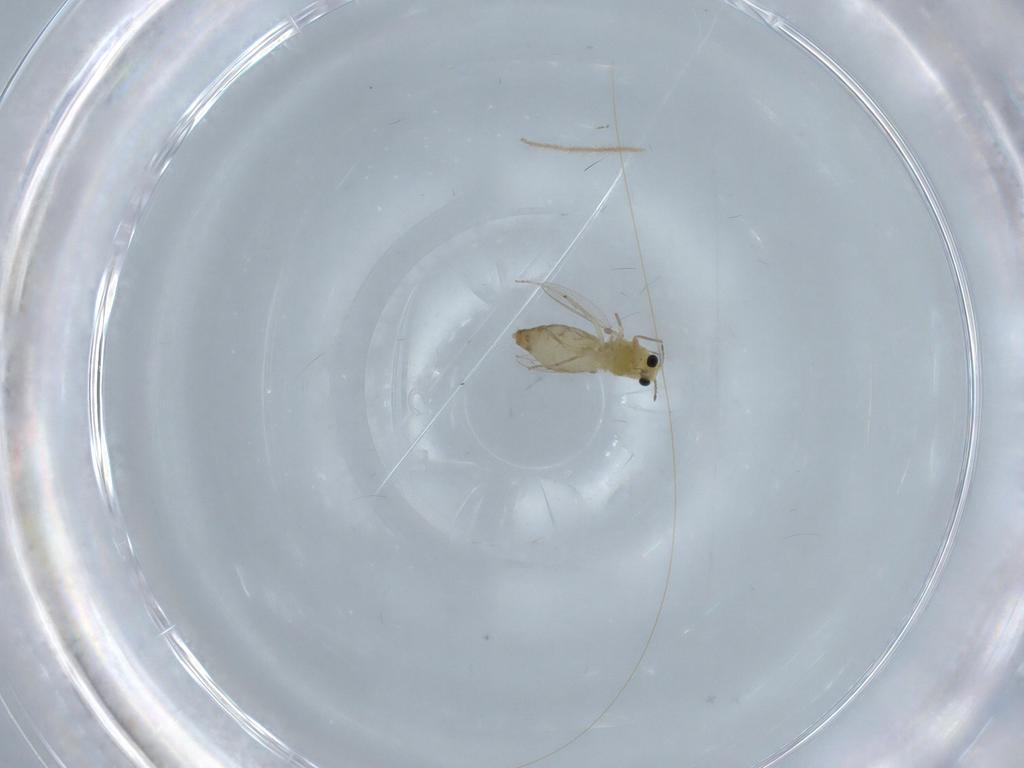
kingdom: Animalia
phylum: Arthropoda
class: Insecta
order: Diptera
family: Chironomidae
